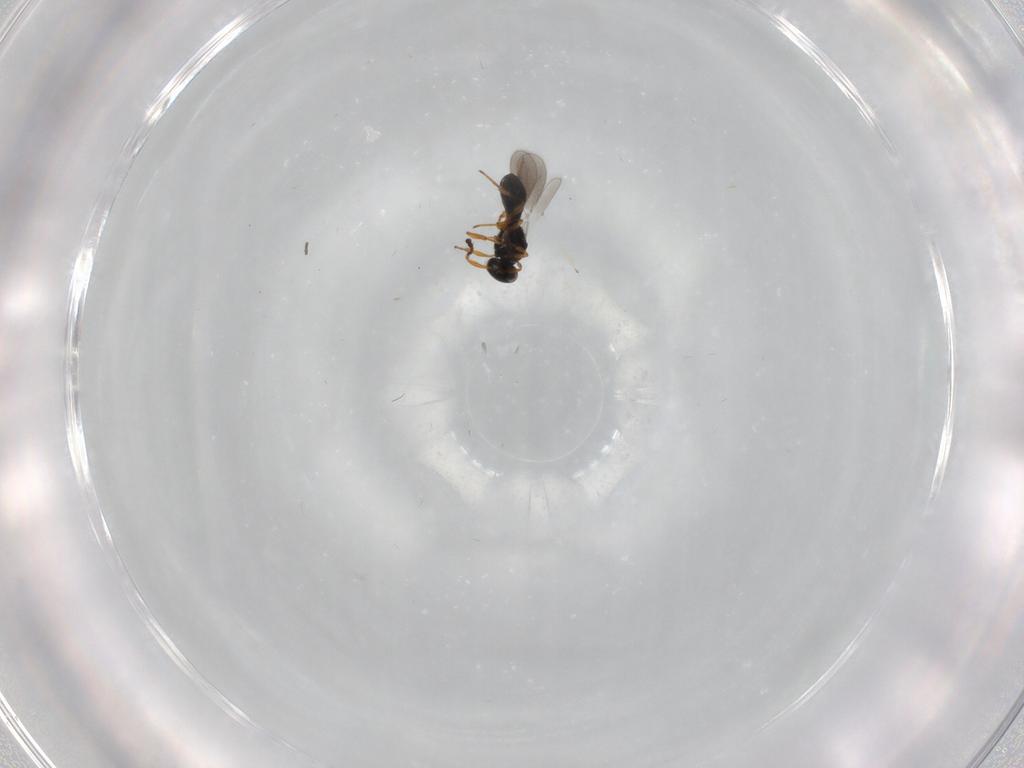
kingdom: Animalia
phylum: Arthropoda
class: Insecta
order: Hymenoptera
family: Platygastridae
